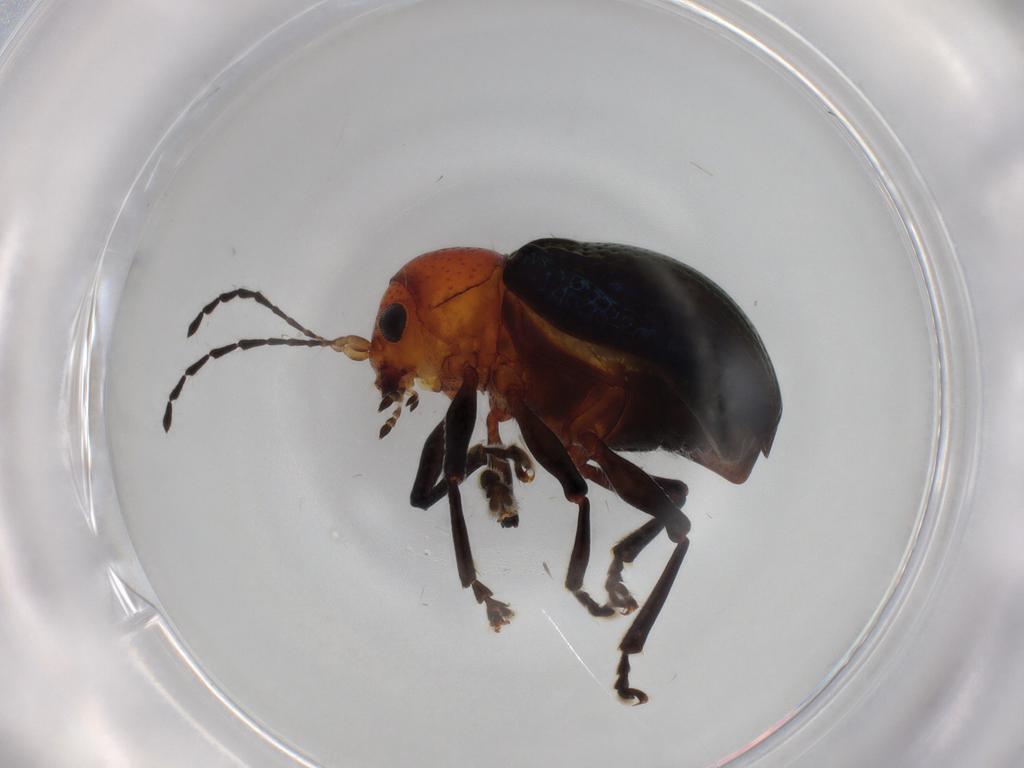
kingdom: Animalia
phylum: Arthropoda
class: Insecta
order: Coleoptera
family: Chrysomelidae
